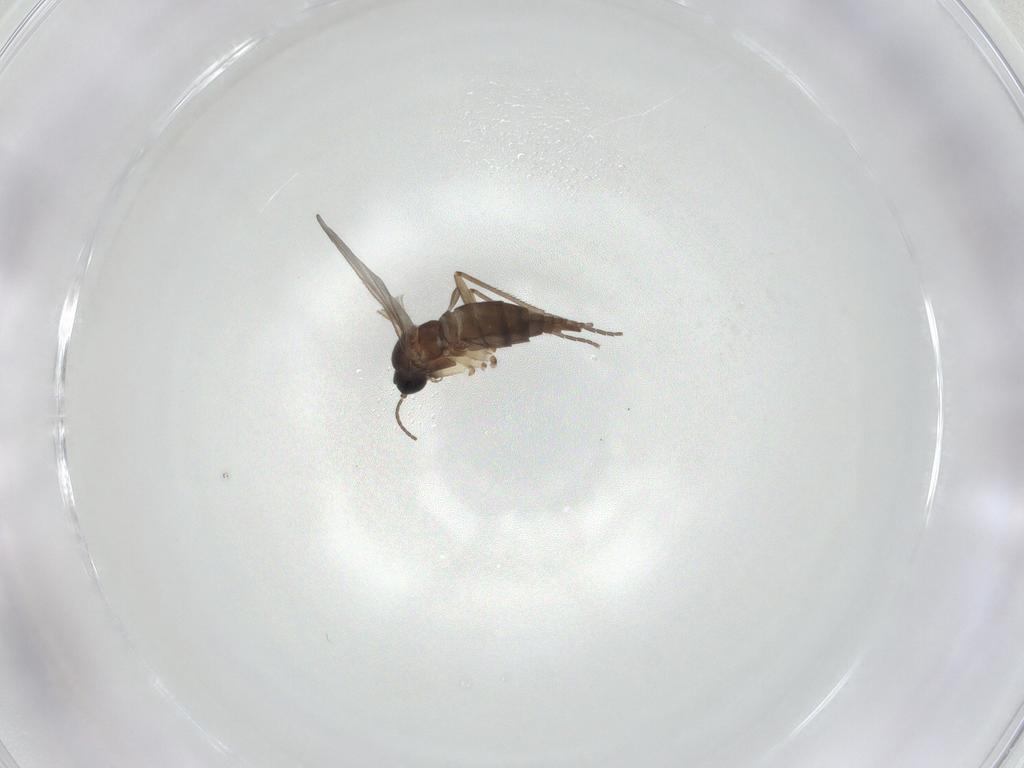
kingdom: Animalia
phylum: Arthropoda
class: Insecta
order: Diptera
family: Sciaridae
